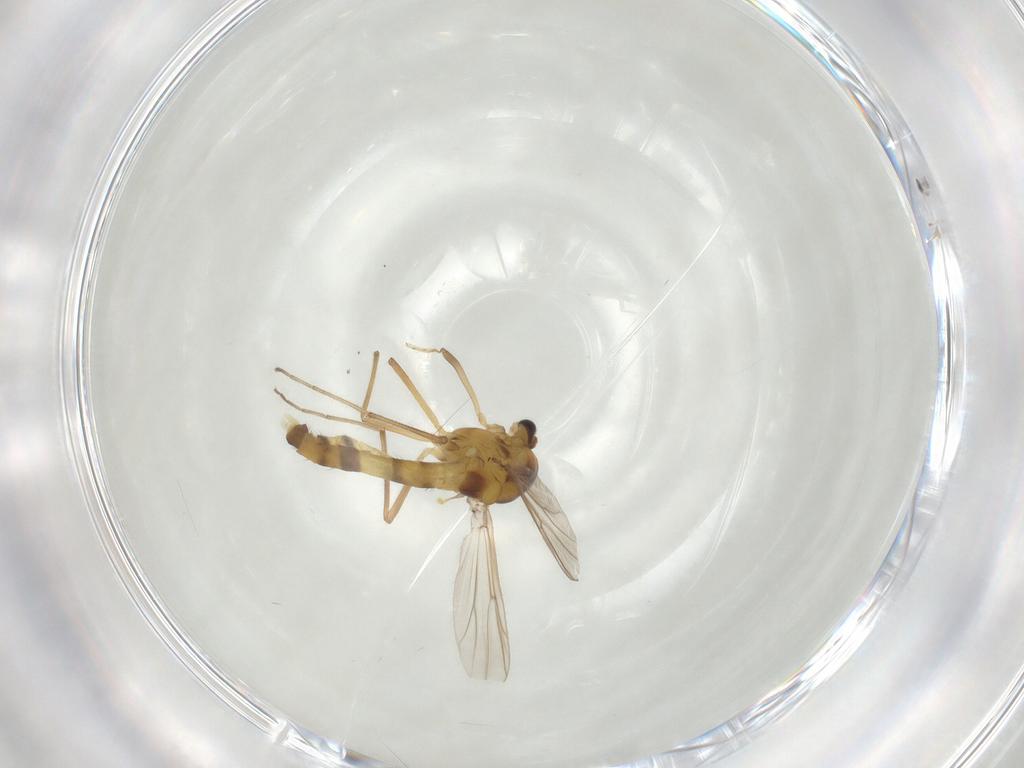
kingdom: Animalia
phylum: Arthropoda
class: Insecta
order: Diptera
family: Chironomidae
